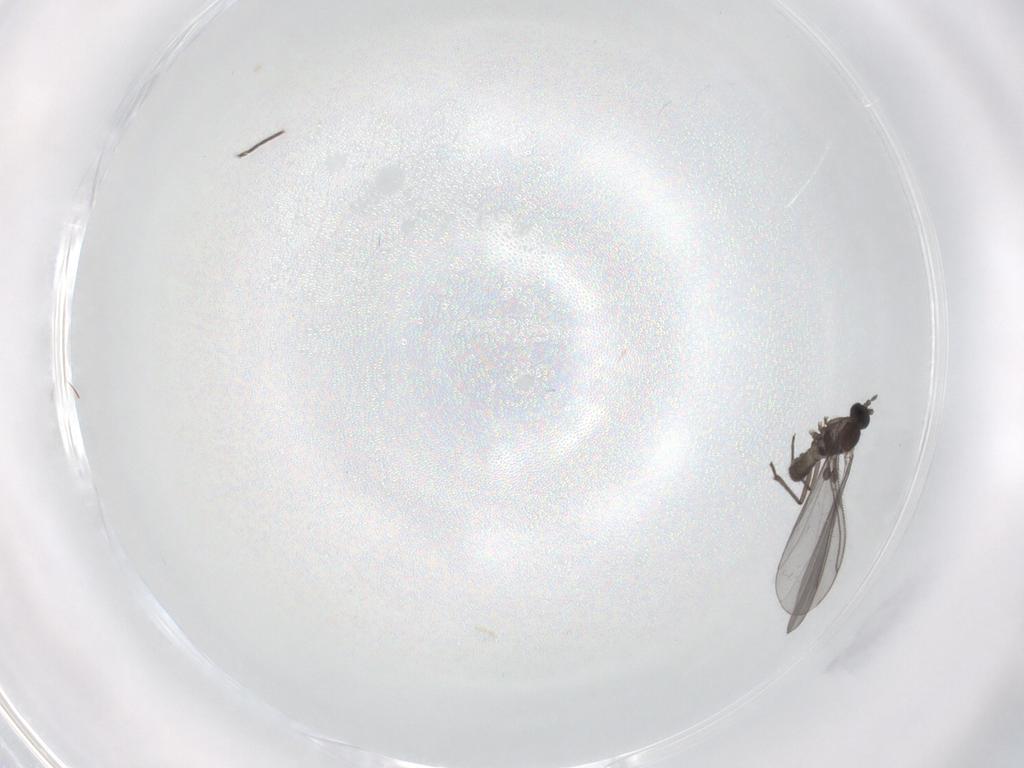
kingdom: Animalia
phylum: Arthropoda
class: Insecta
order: Diptera
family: Sciaridae
